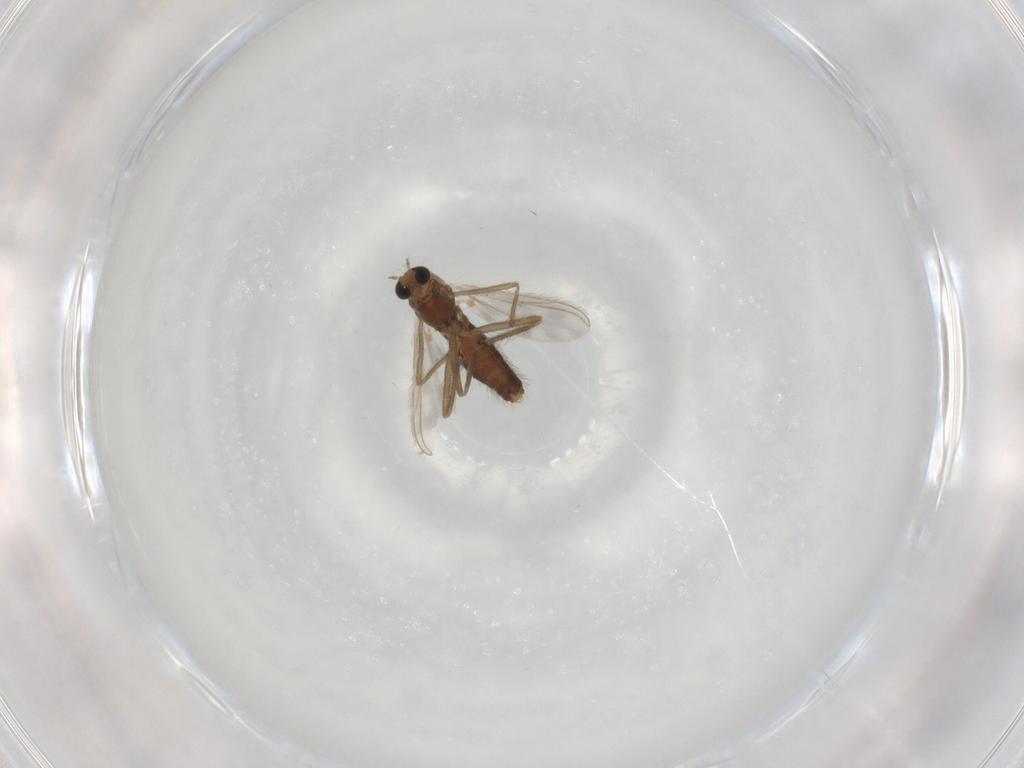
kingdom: Animalia
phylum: Arthropoda
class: Insecta
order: Diptera
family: Chironomidae
